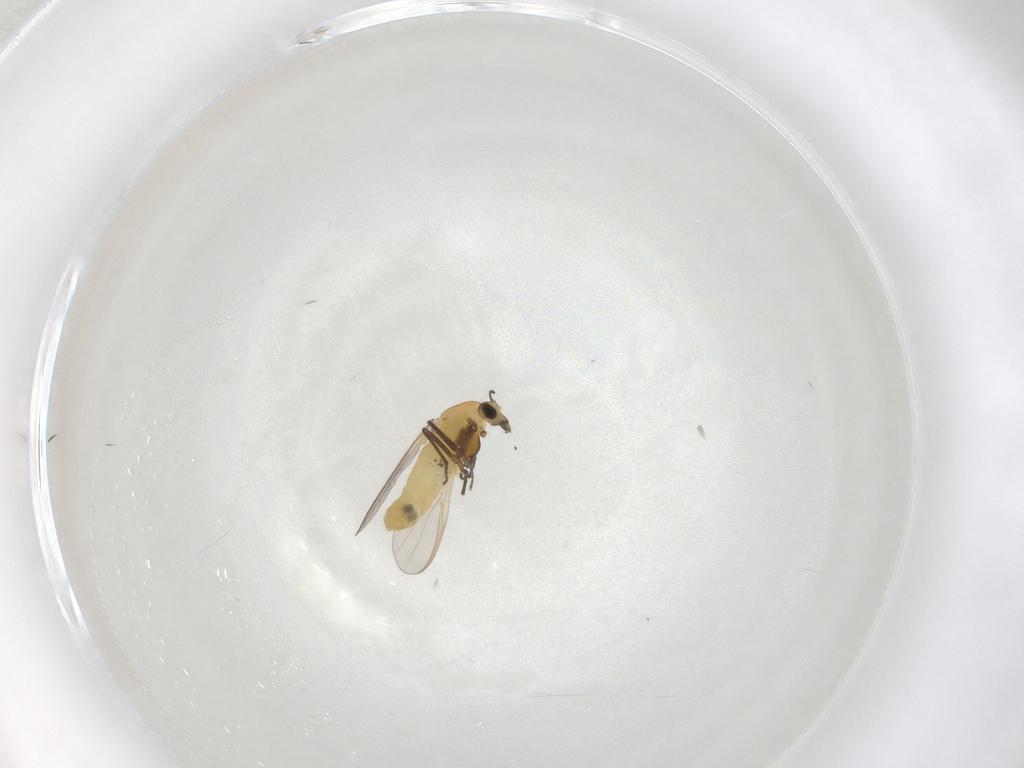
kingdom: Animalia
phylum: Arthropoda
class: Insecta
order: Diptera
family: Chironomidae
